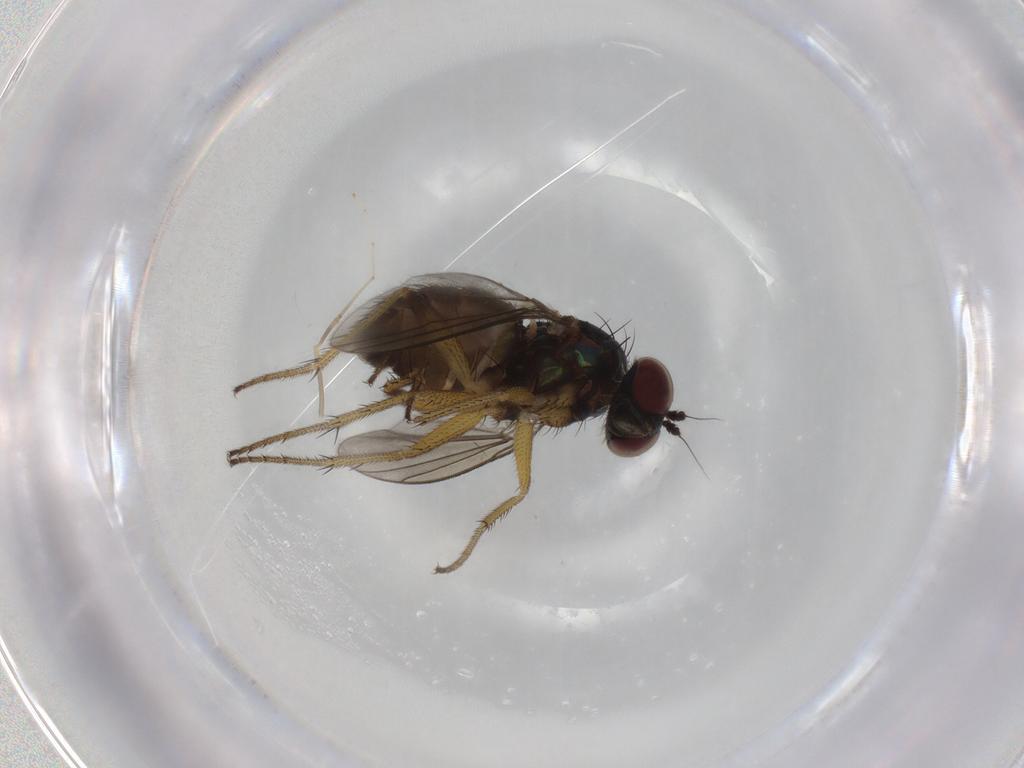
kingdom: Animalia
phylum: Arthropoda
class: Insecta
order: Diptera
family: Dolichopodidae
